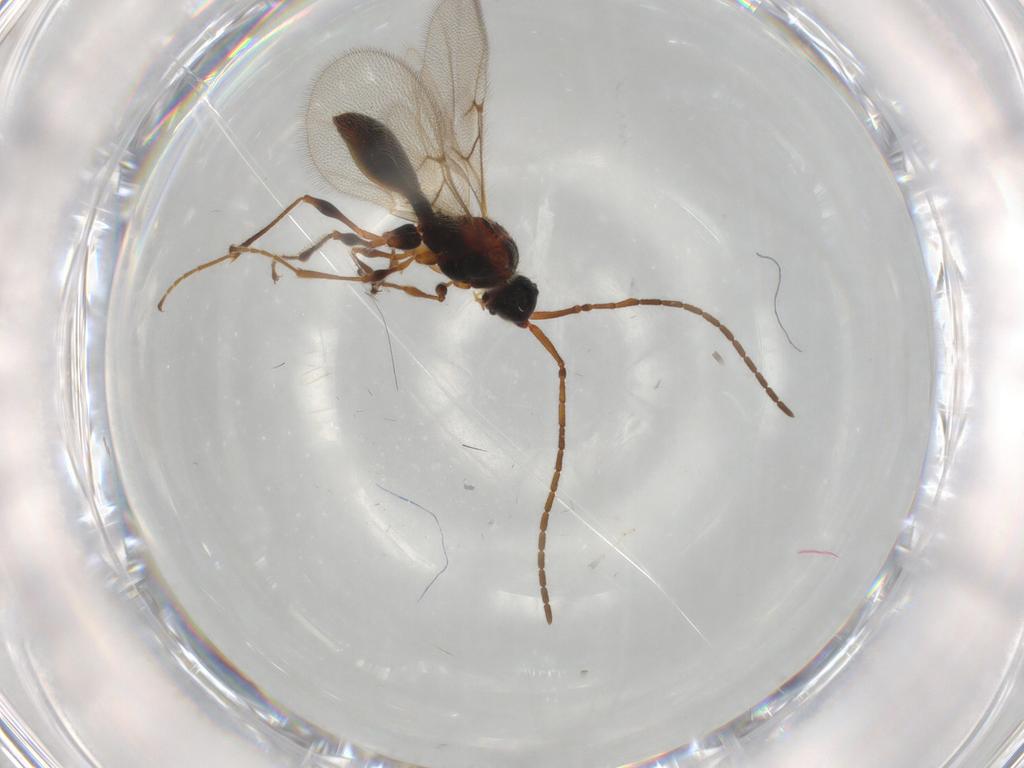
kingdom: Animalia
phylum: Arthropoda
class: Insecta
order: Hymenoptera
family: Diapriidae
